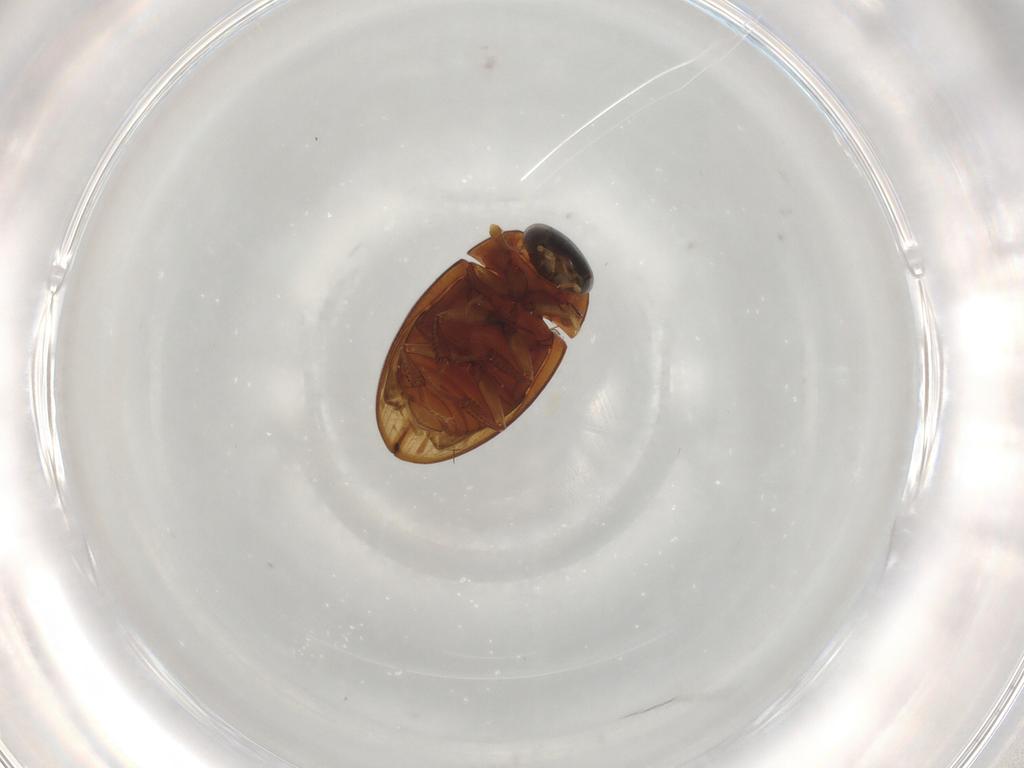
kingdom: Animalia
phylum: Arthropoda
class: Insecta
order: Coleoptera
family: Hydrophilidae
